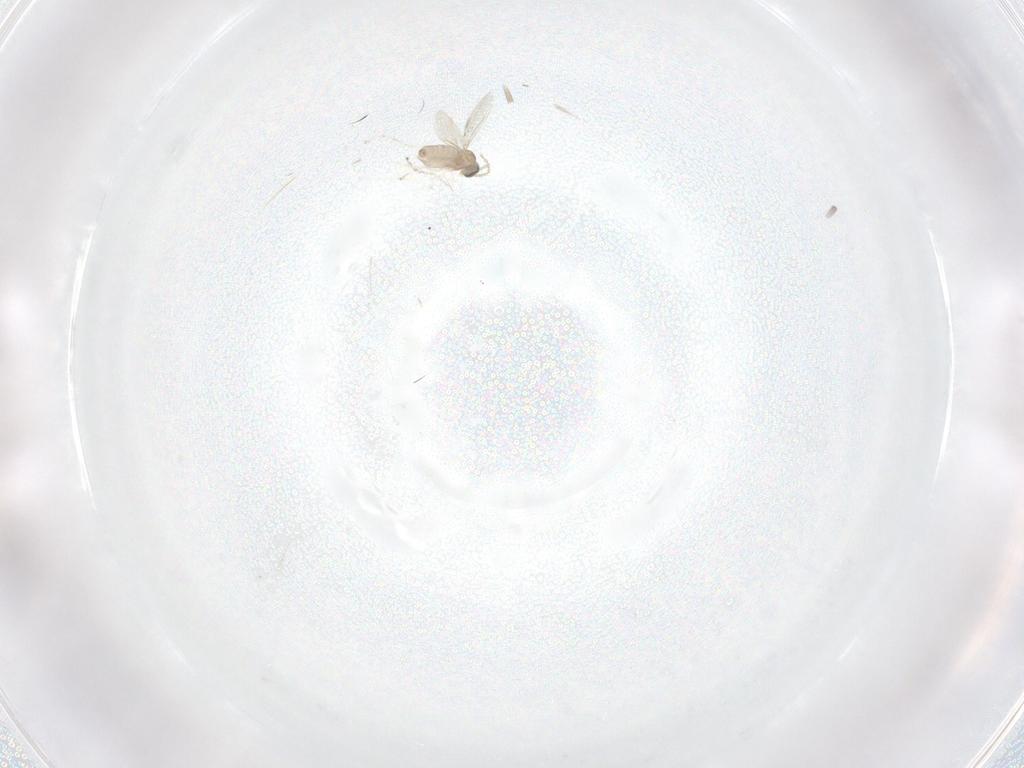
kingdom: Animalia
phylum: Arthropoda
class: Insecta
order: Diptera
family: Cecidomyiidae
